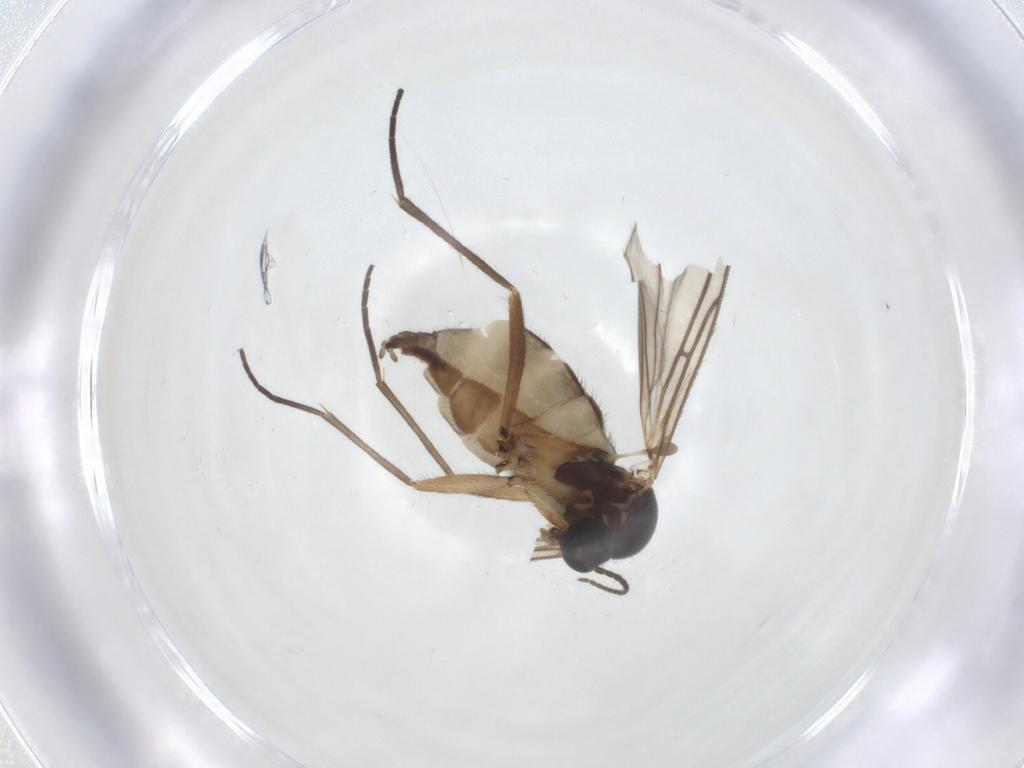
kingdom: Animalia
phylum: Arthropoda
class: Insecta
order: Diptera
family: Sciaridae
